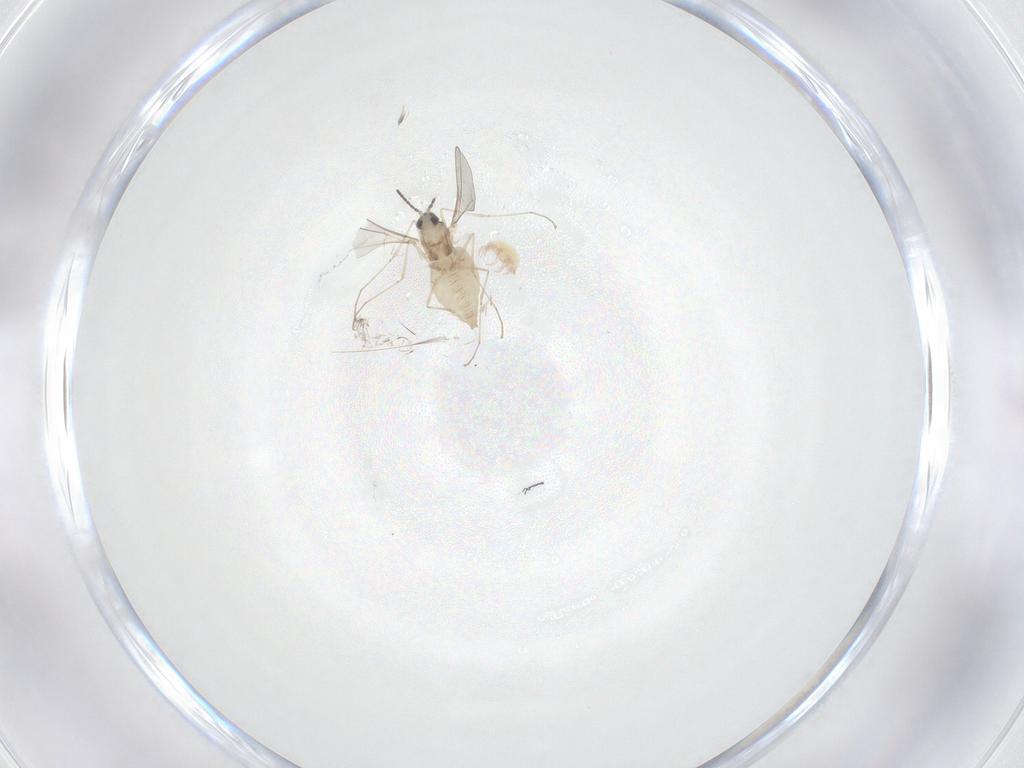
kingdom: Animalia
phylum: Arthropoda
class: Insecta
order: Diptera
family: Cecidomyiidae
